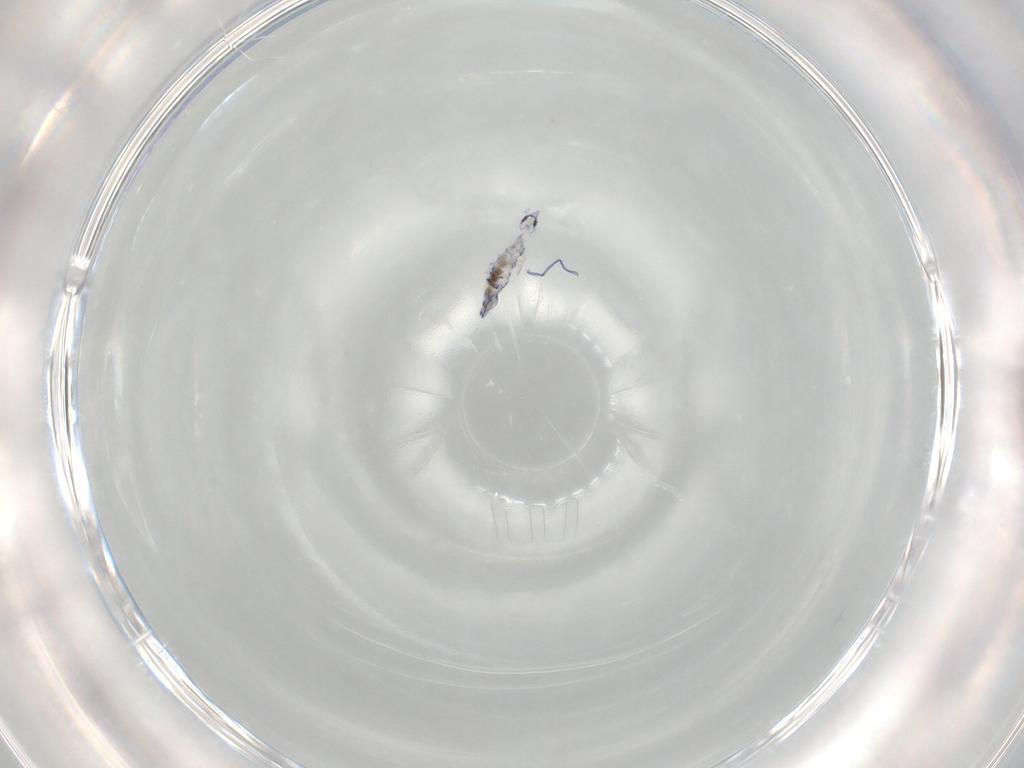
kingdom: Animalia
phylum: Arthropoda
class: Collembola
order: Entomobryomorpha
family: Entomobryidae
